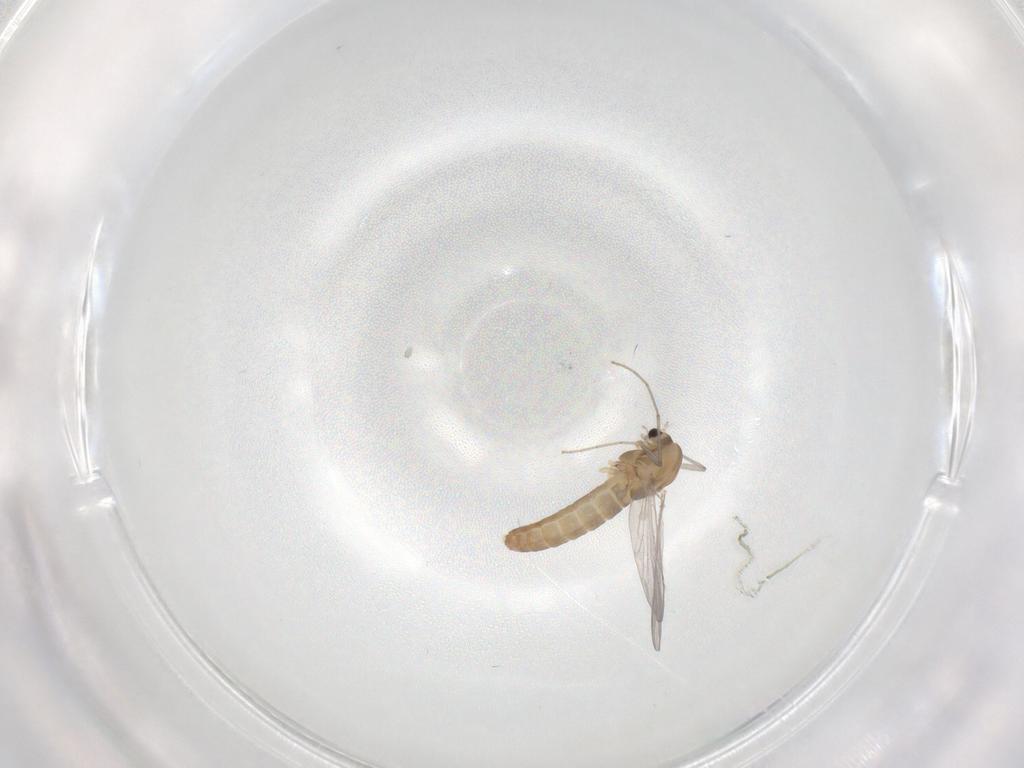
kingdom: Animalia
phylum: Arthropoda
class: Insecta
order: Diptera
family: Chironomidae
